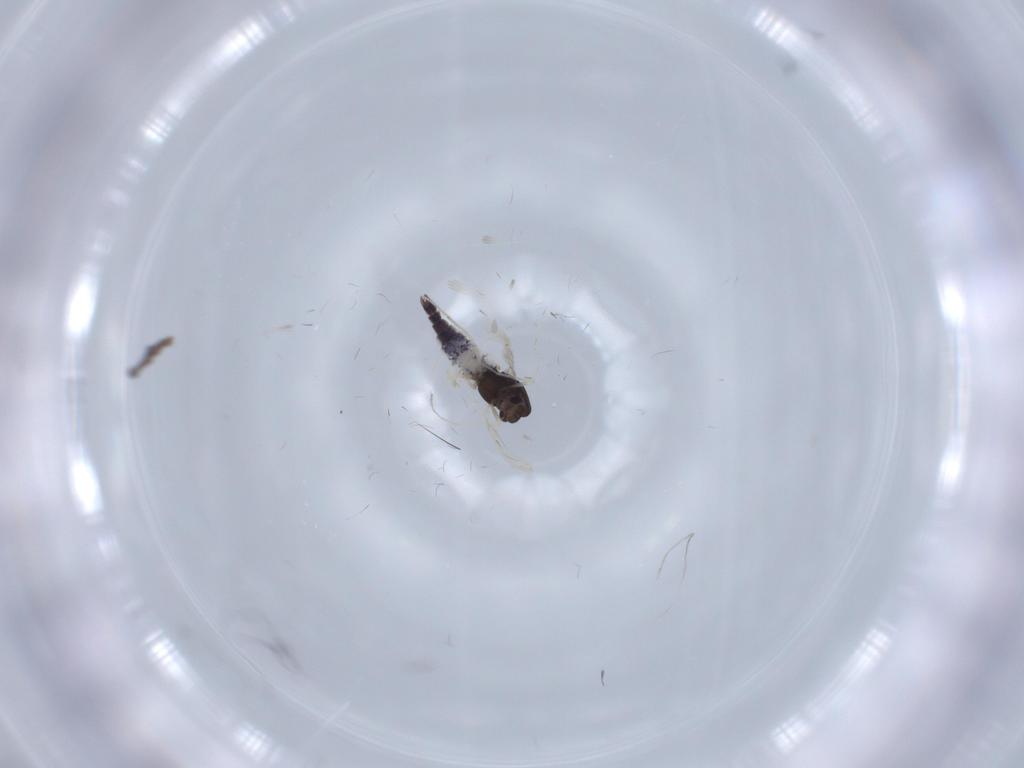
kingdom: Animalia
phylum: Arthropoda
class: Insecta
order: Diptera
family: Chironomidae
